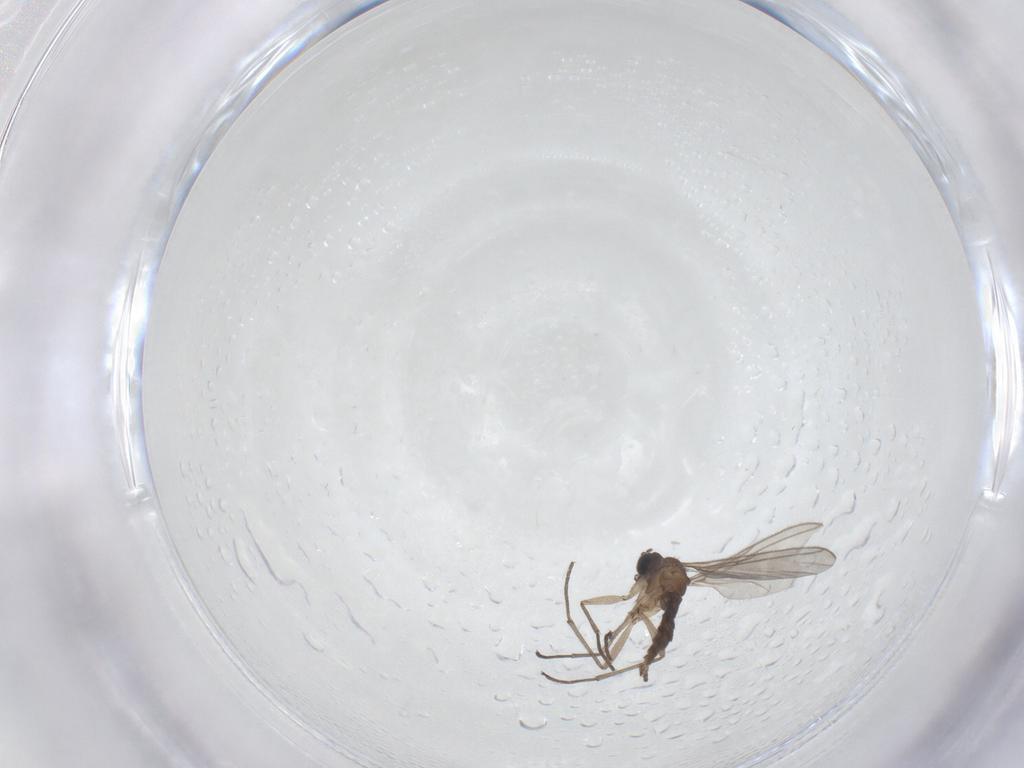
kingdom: Animalia
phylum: Arthropoda
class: Insecta
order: Diptera
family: Sciaridae
